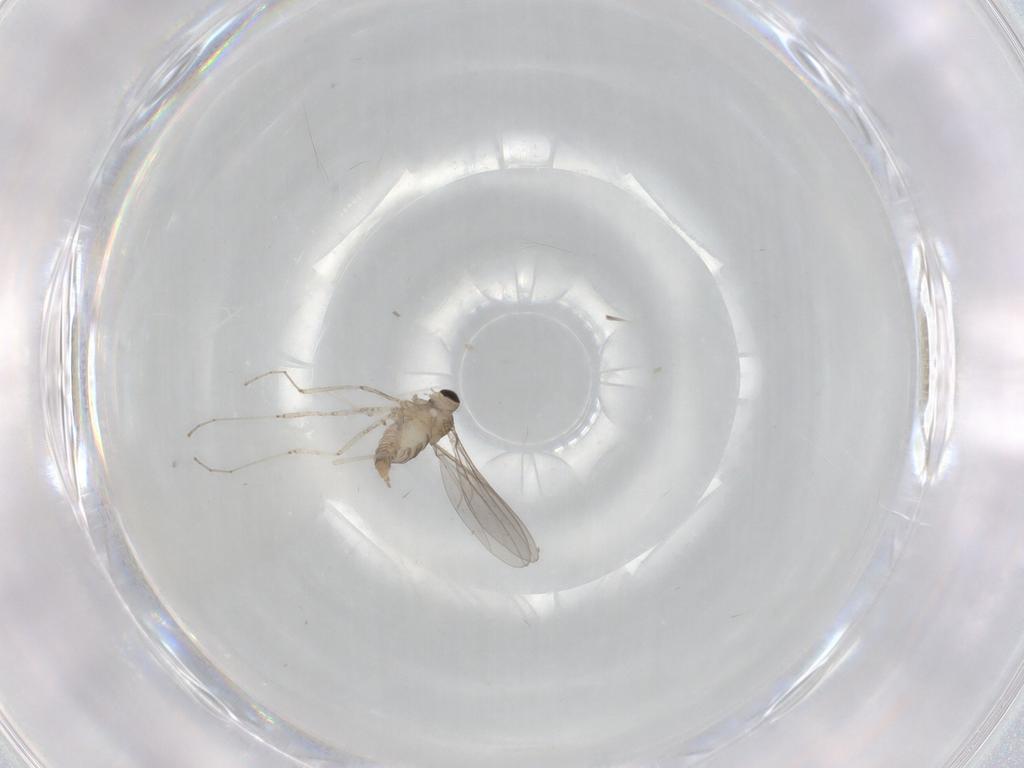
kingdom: Animalia
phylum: Arthropoda
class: Insecta
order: Diptera
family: Cecidomyiidae
